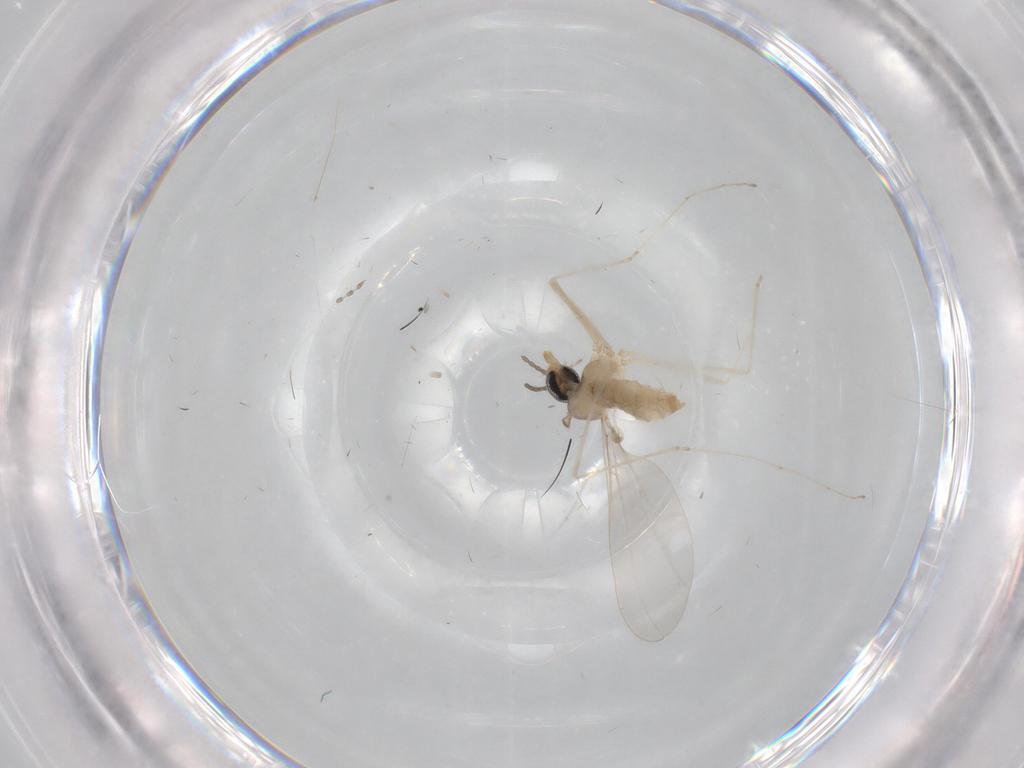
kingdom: Animalia
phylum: Arthropoda
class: Insecta
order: Diptera
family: Cecidomyiidae
